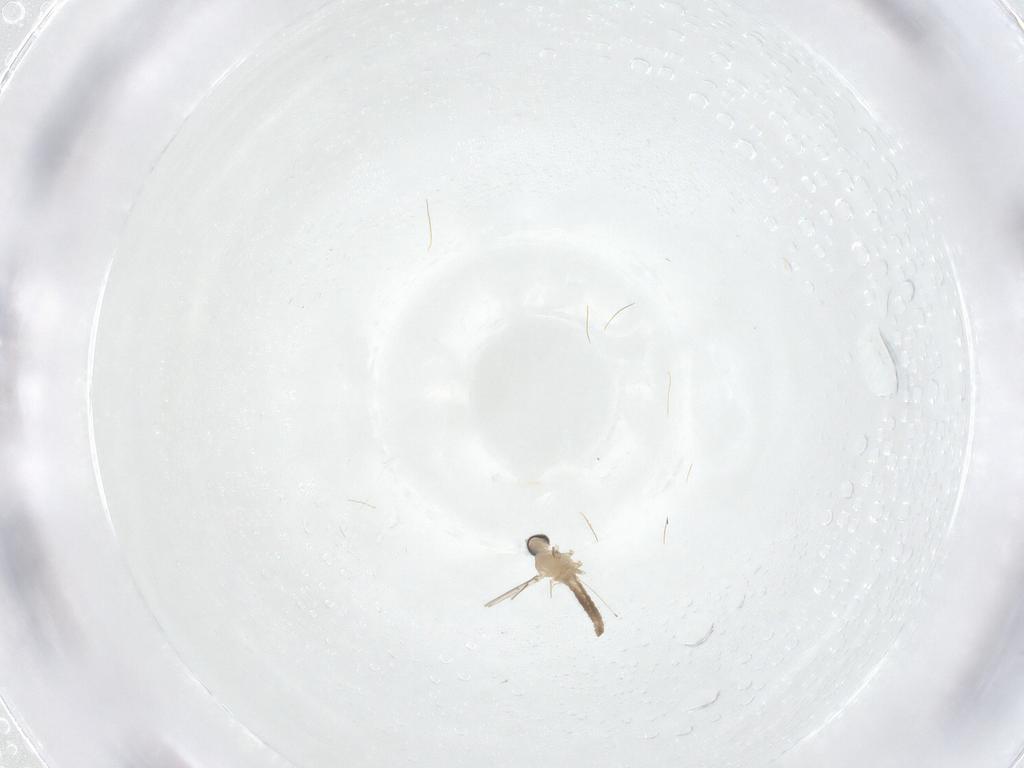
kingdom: Animalia
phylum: Arthropoda
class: Insecta
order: Diptera
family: Cecidomyiidae
